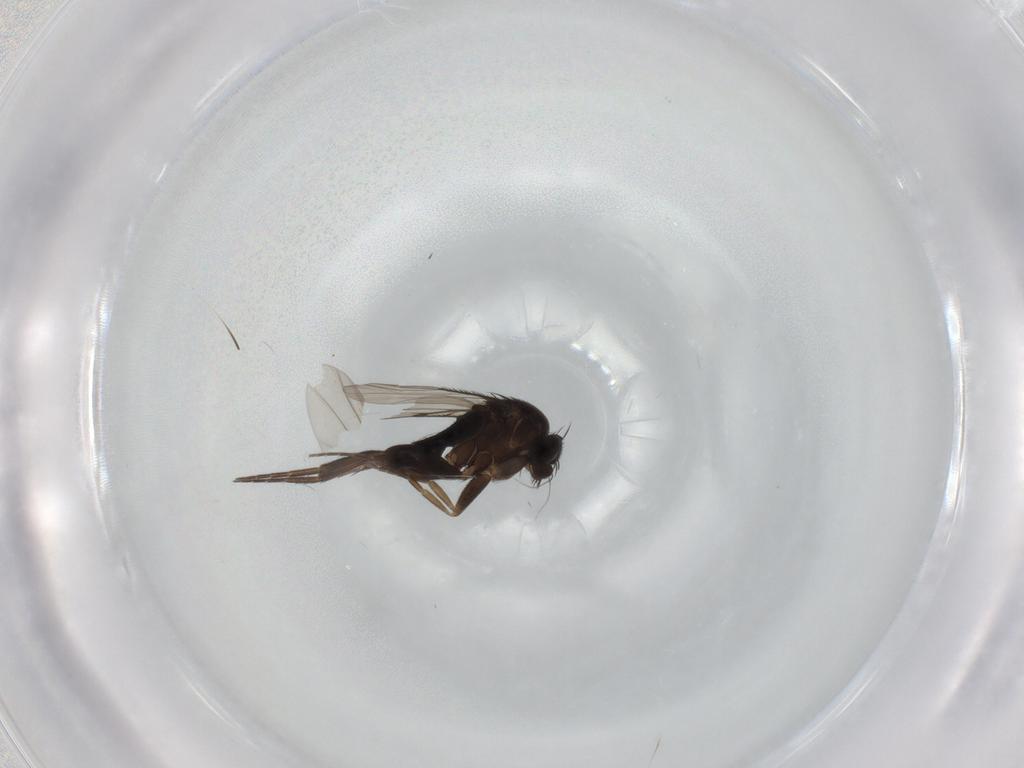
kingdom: Animalia
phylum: Arthropoda
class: Insecta
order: Diptera
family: Phoridae
